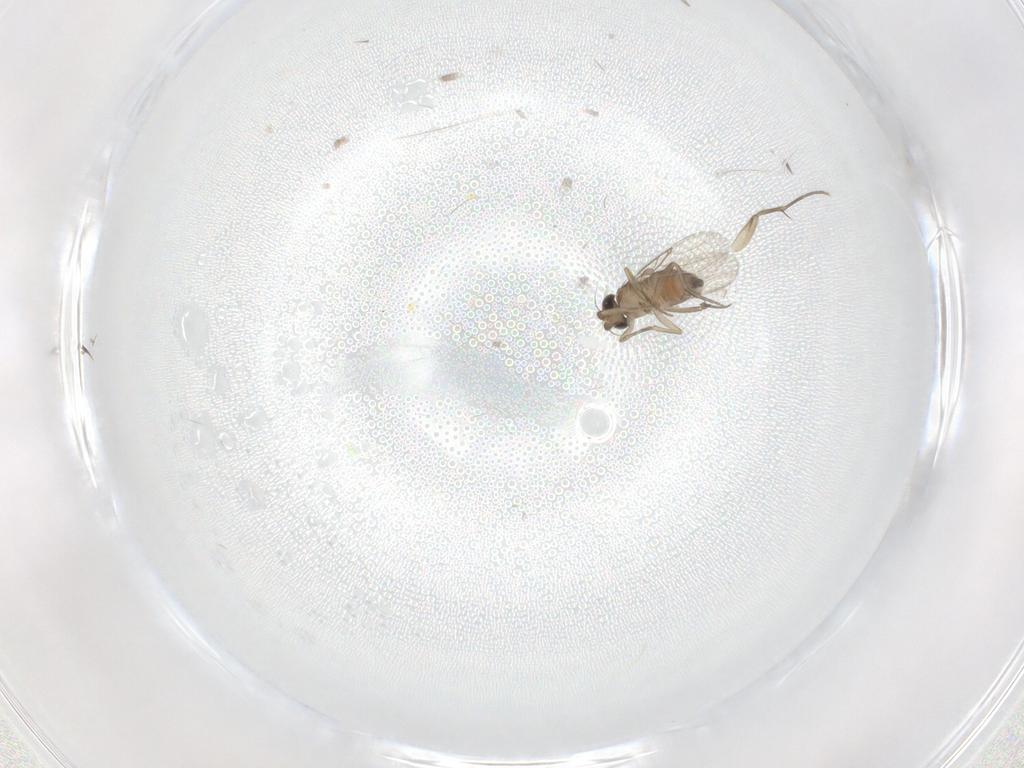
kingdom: Animalia
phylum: Arthropoda
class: Insecta
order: Diptera
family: Phoridae
